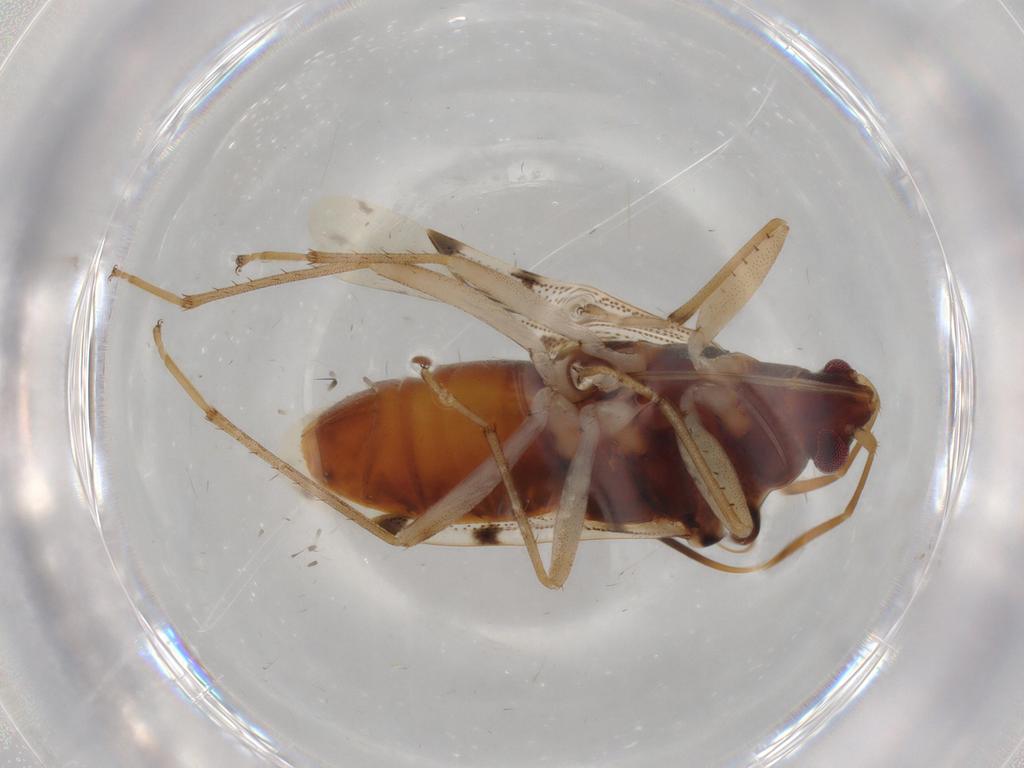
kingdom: Animalia
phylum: Arthropoda
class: Insecta
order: Hemiptera
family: Rhyparochromidae
